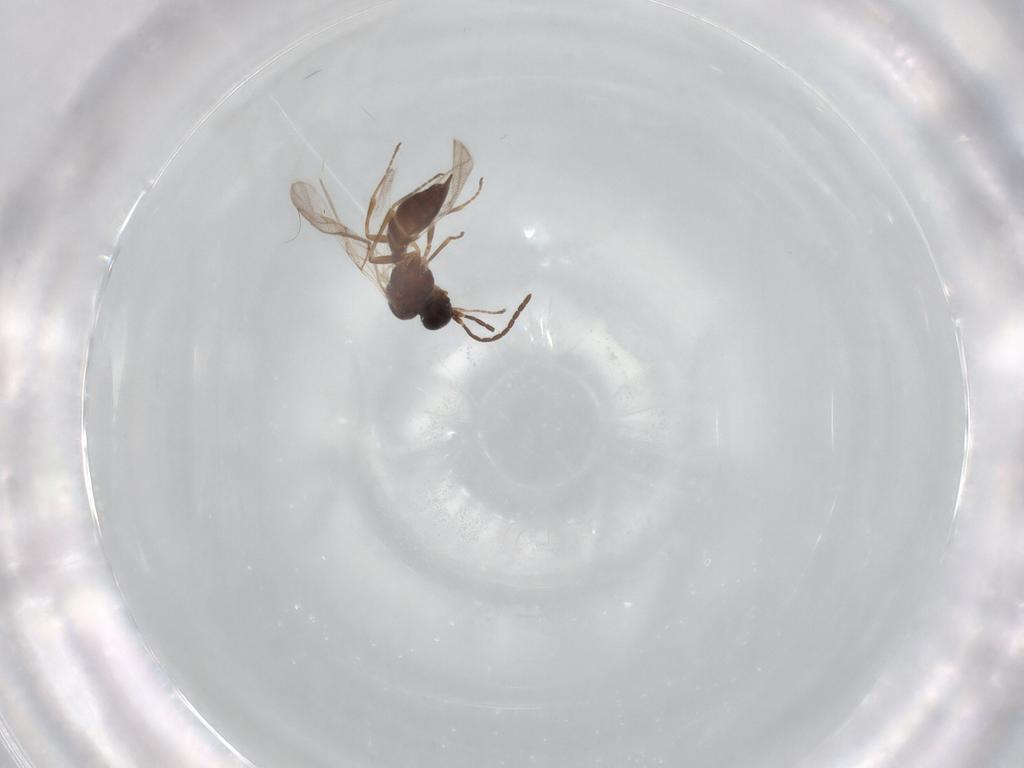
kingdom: Animalia
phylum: Arthropoda
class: Insecta
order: Hymenoptera
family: Braconidae
